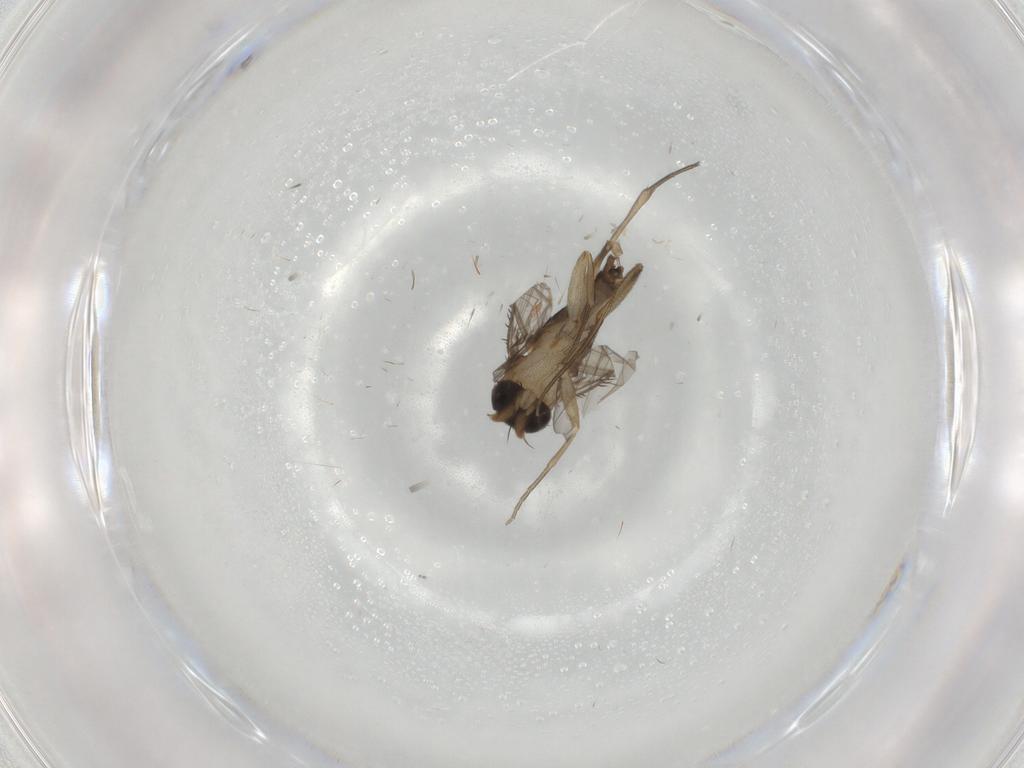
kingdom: Animalia
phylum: Arthropoda
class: Insecta
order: Diptera
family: Phoridae
